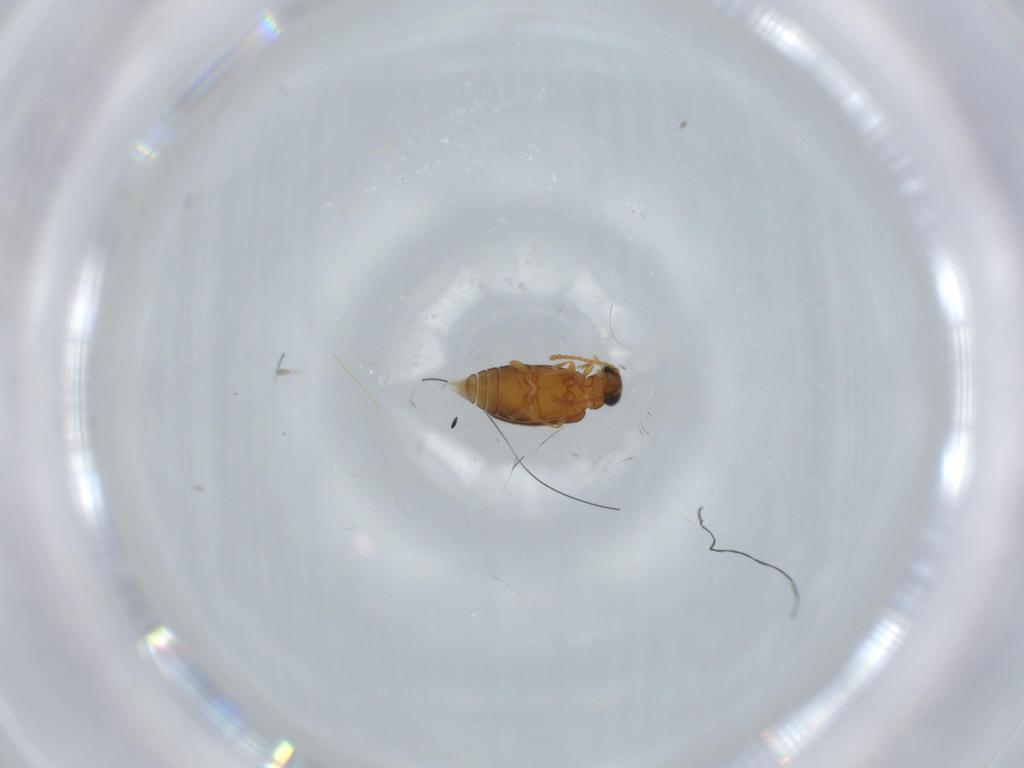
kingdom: Animalia
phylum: Arthropoda
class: Insecta
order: Coleoptera
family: Aderidae
